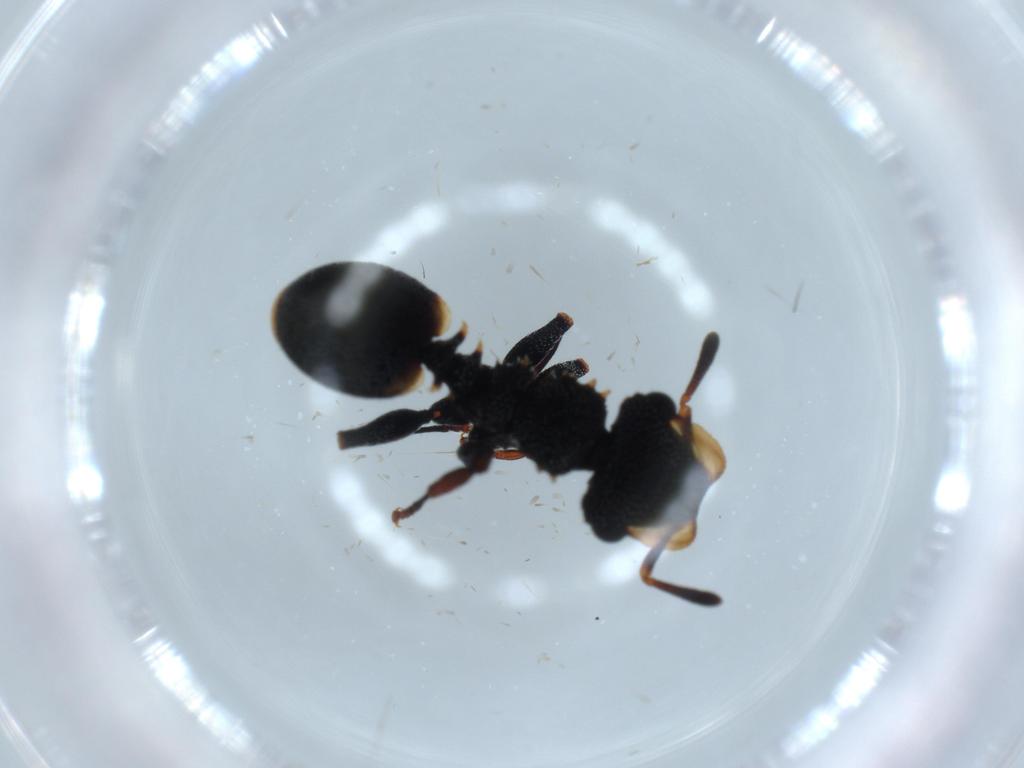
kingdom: Animalia
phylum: Arthropoda
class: Insecta
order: Hymenoptera
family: Formicidae
